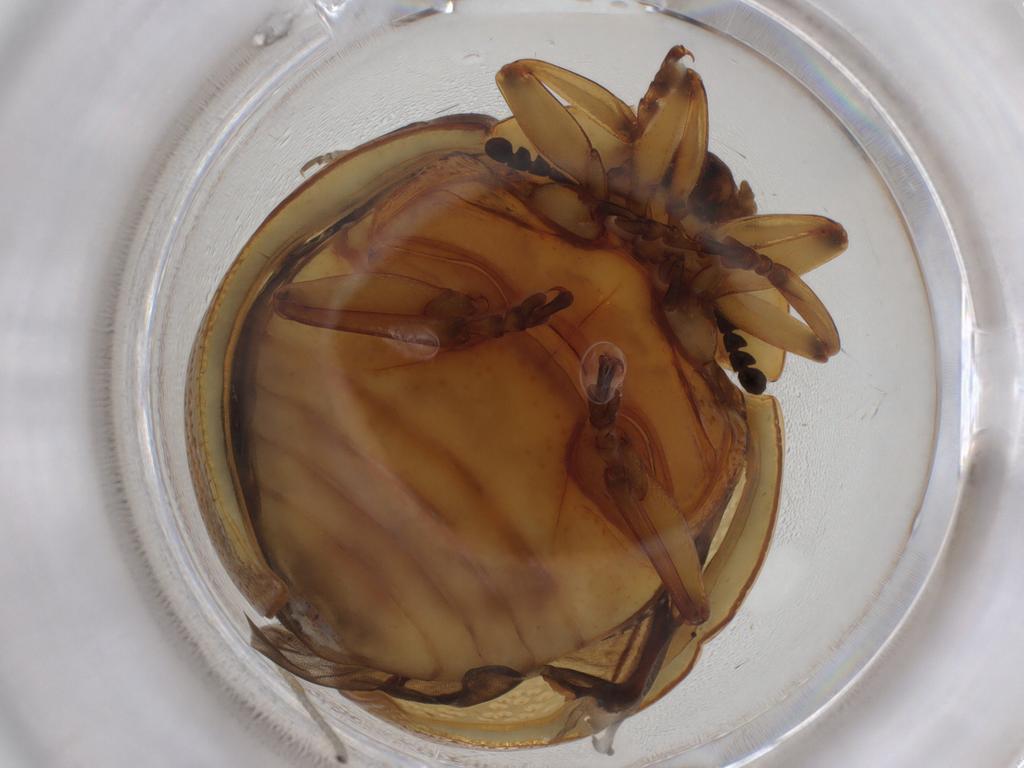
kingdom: Animalia
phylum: Arthropoda
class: Insecta
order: Coleoptera
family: Chrysomelidae
